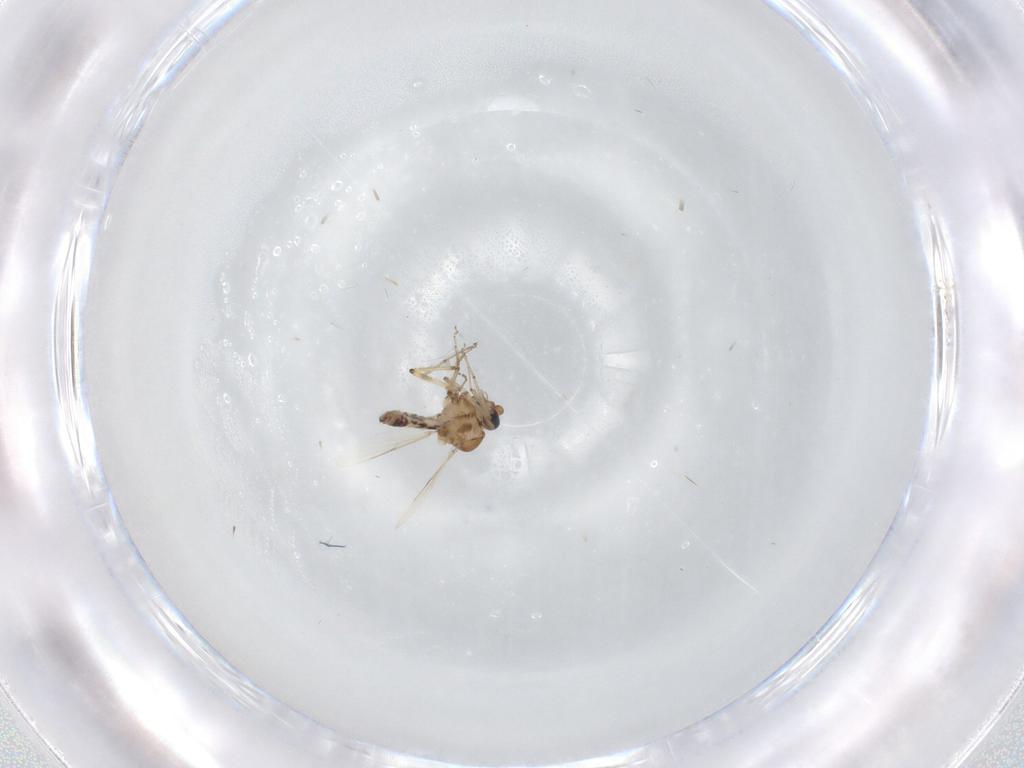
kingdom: Animalia
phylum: Arthropoda
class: Insecta
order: Diptera
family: Ceratopogonidae
